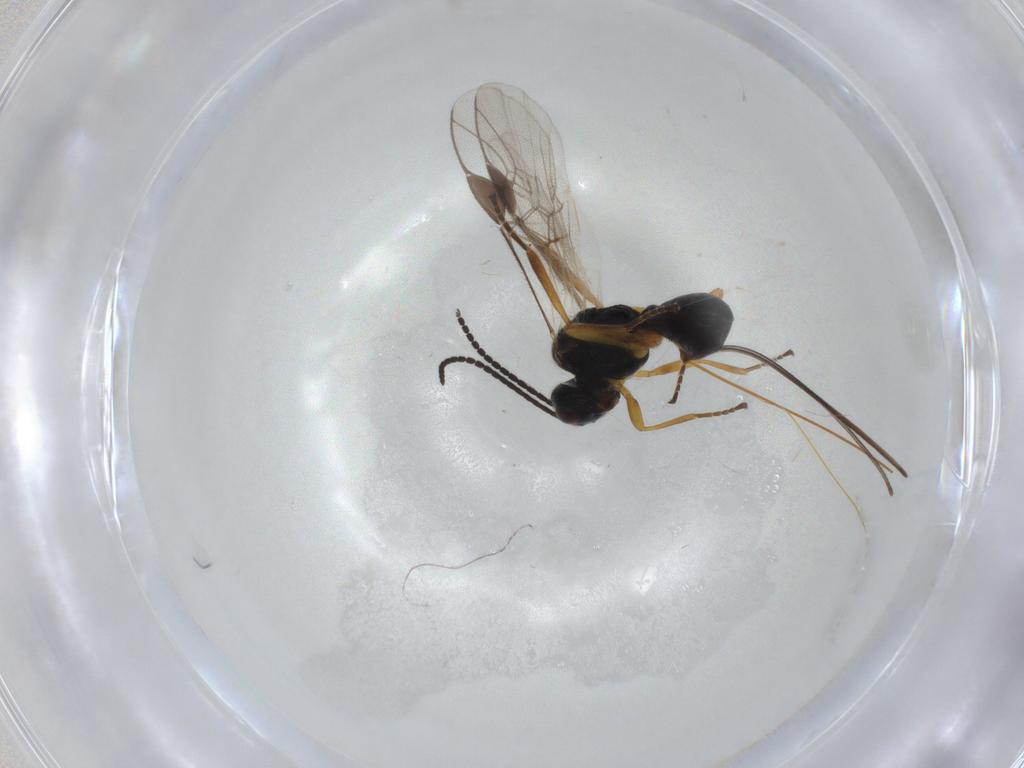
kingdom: Animalia
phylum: Arthropoda
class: Insecta
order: Hymenoptera
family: Braconidae
